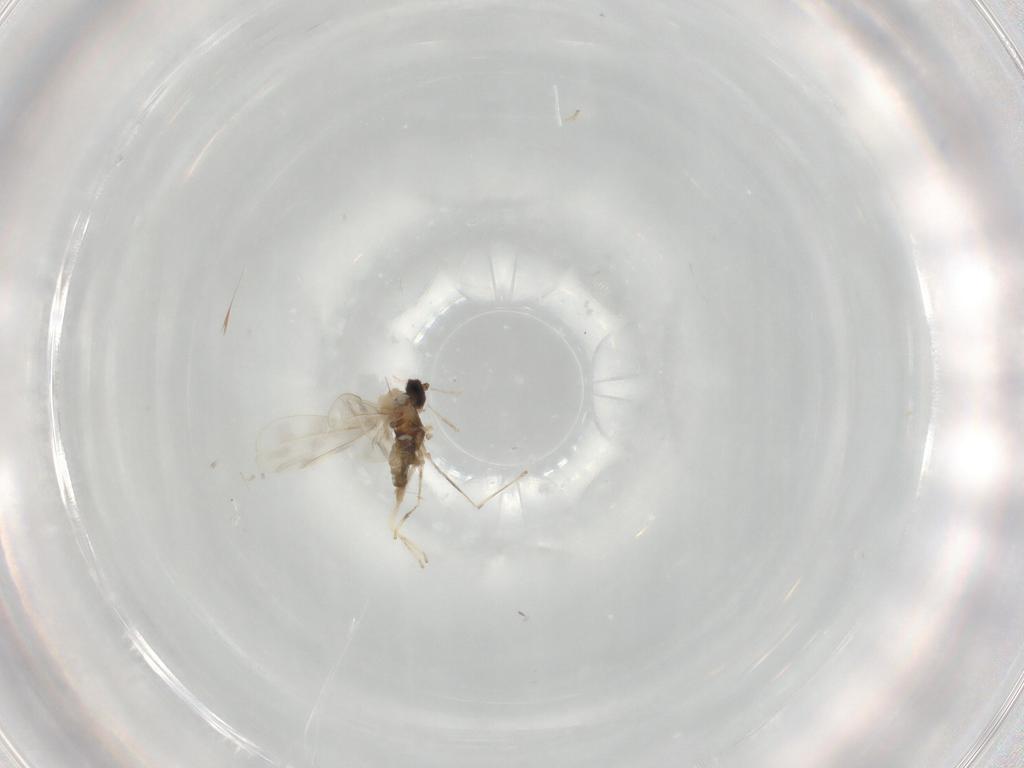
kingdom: Animalia
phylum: Arthropoda
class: Insecta
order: Diptera
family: Cecidomyiidae
